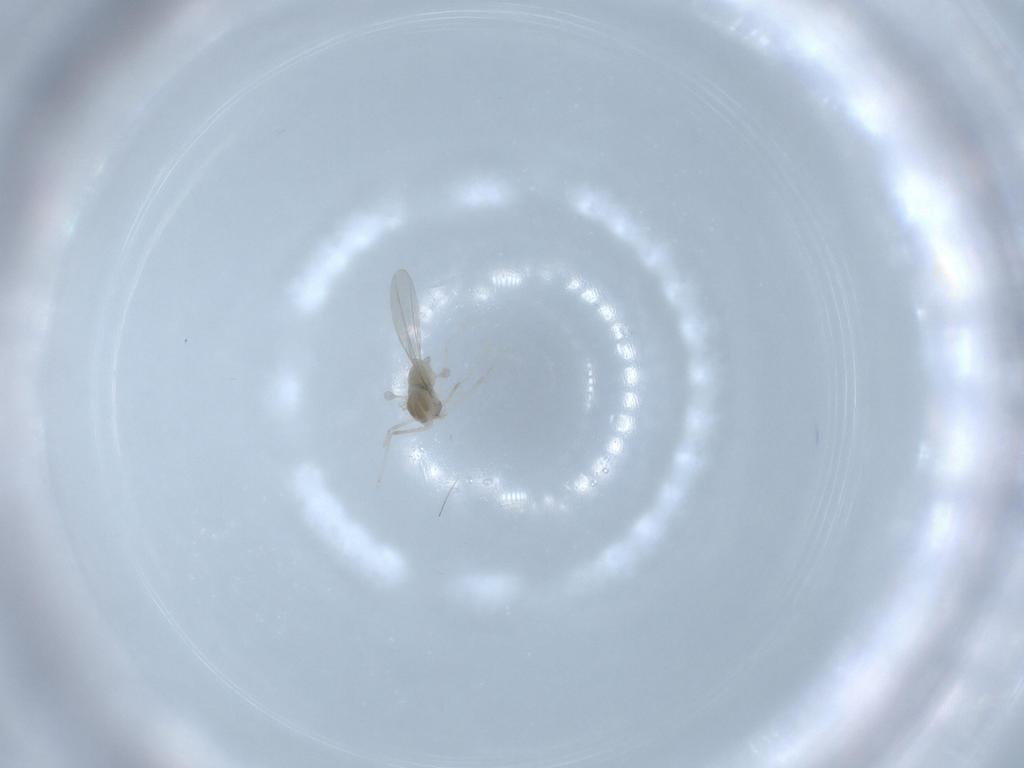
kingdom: Animalia
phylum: Arthropoda
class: Insecta
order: Diptera
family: Cecidomyiidae
